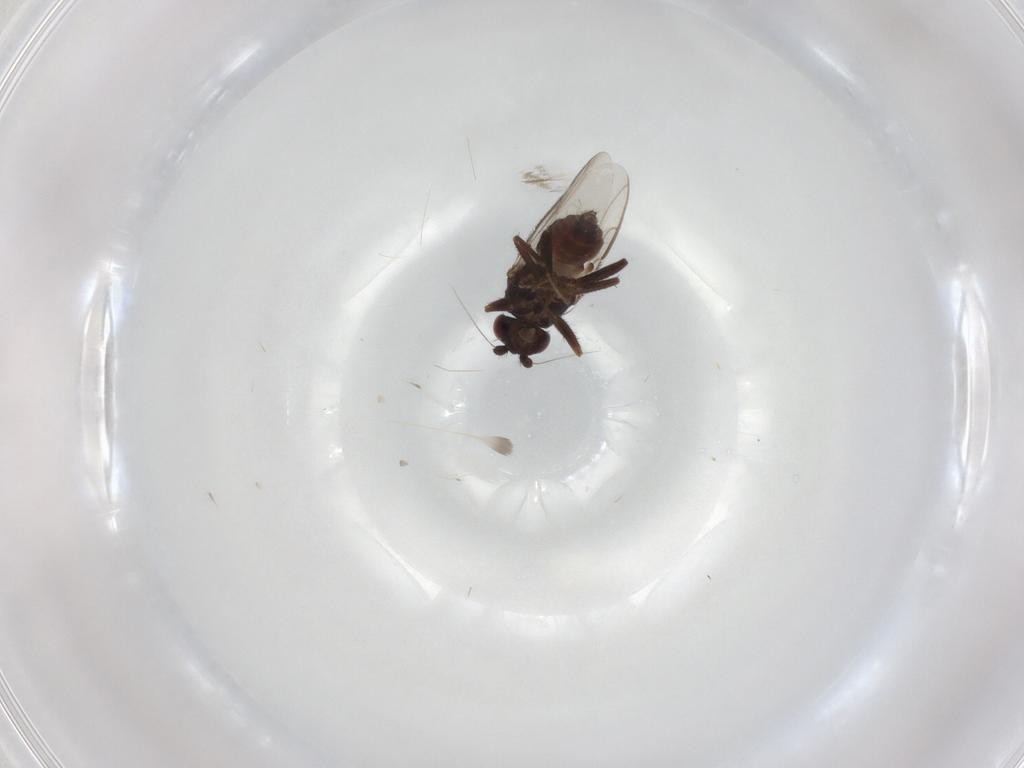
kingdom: Animalia
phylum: Arthropoda
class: Insecta
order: Diptera
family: Sphaeroceridae
